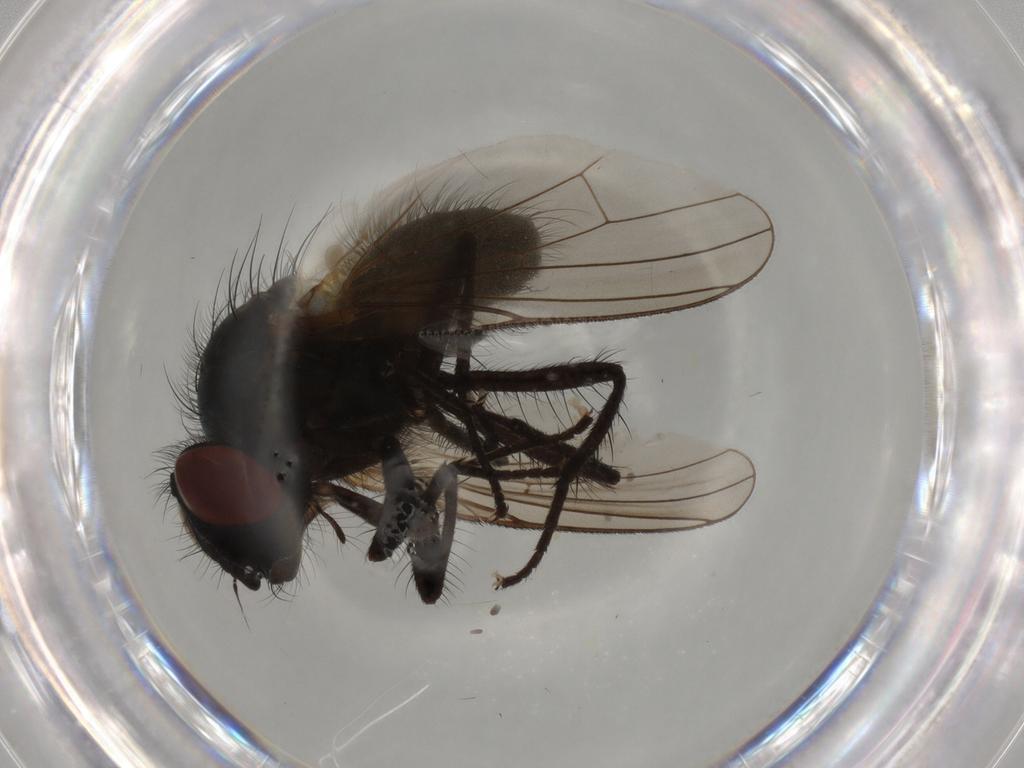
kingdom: Animalia
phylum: Arthropoda
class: Insecta
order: Diptera
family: Anthomyiidae
